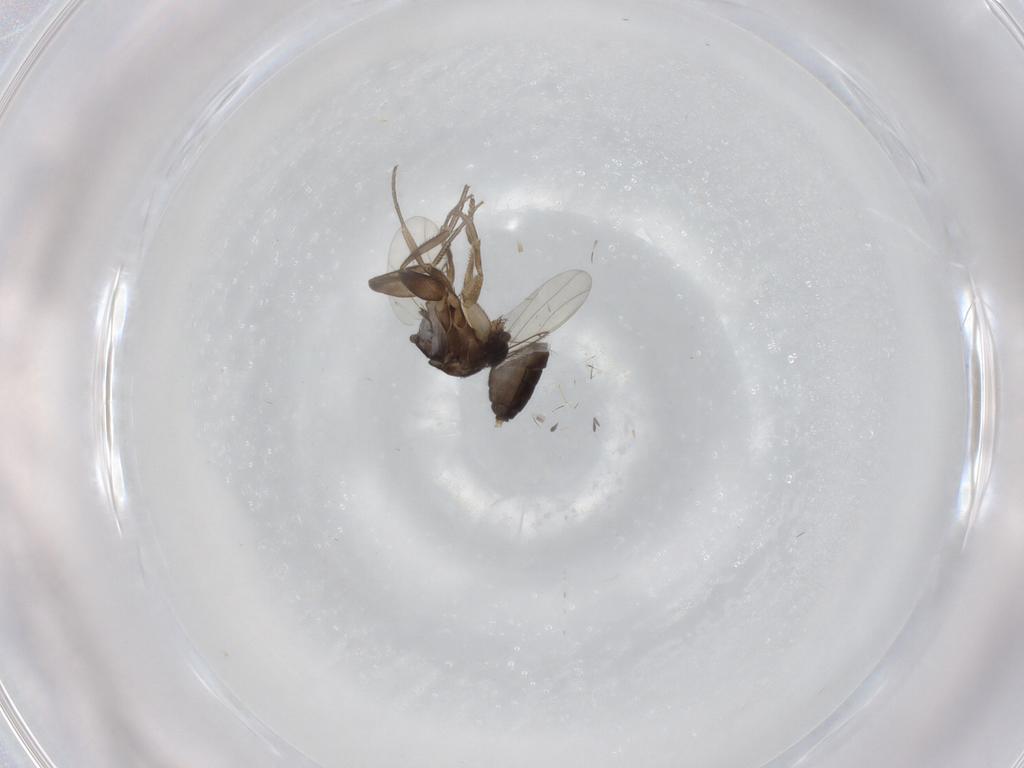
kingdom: Animalia
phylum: Arthropoda
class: Insecta
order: Diptera
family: Phoridae
